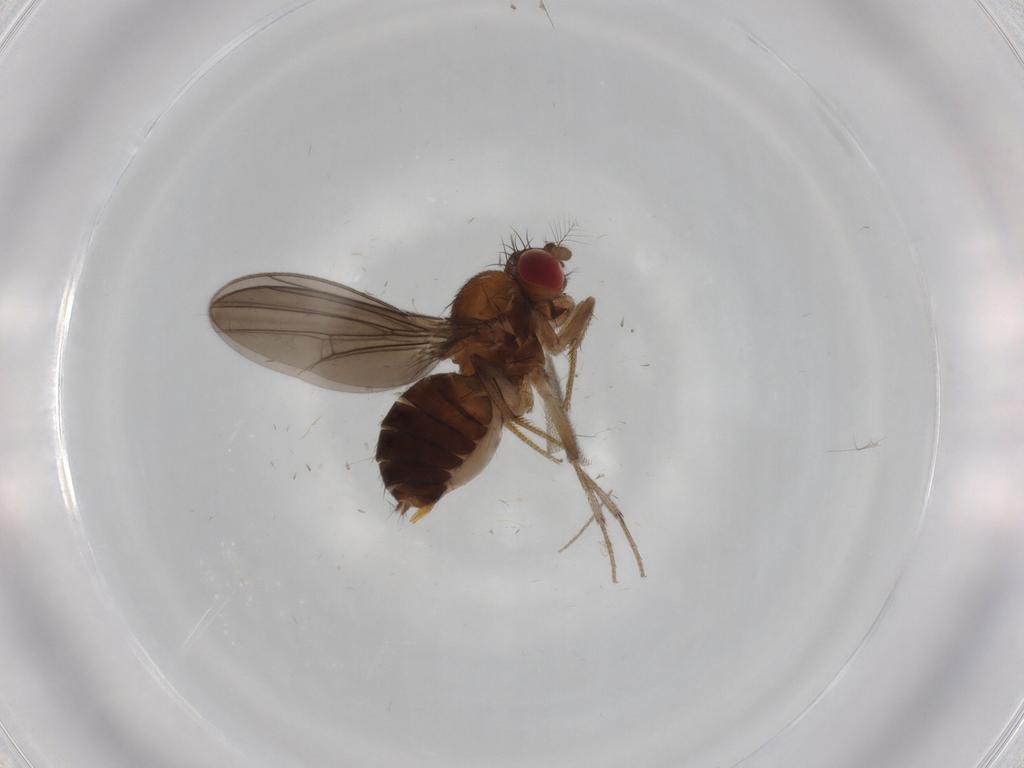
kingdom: Animalia
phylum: Arthropoda
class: Insecta
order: Diptera
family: Drosophilidae
